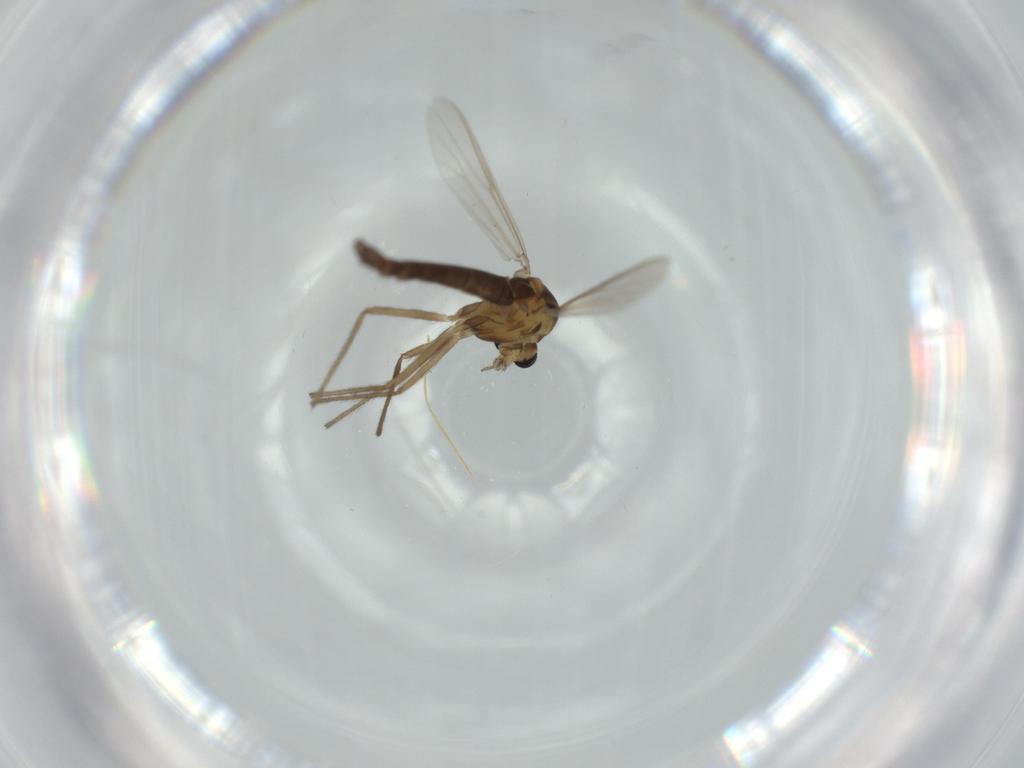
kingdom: Animalia
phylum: Arthropoda
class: Insecta
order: Diptera
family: Chironomidae
